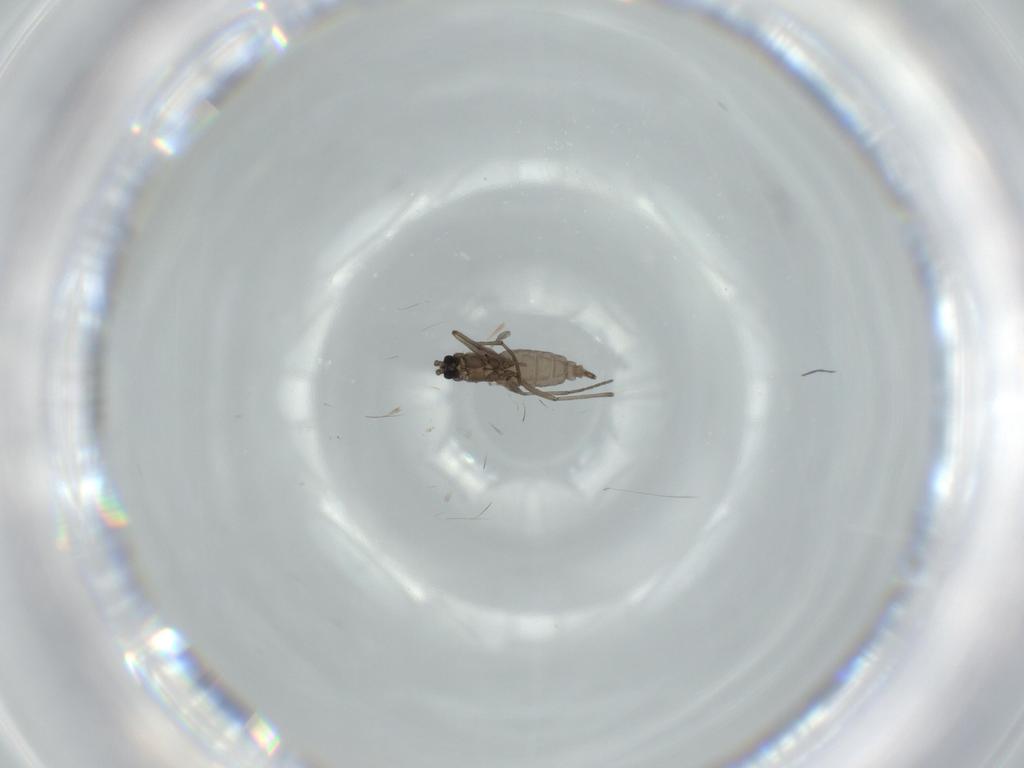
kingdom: Animalia
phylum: Arthropoda
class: Insecta
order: Diptera
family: Sciaridae
